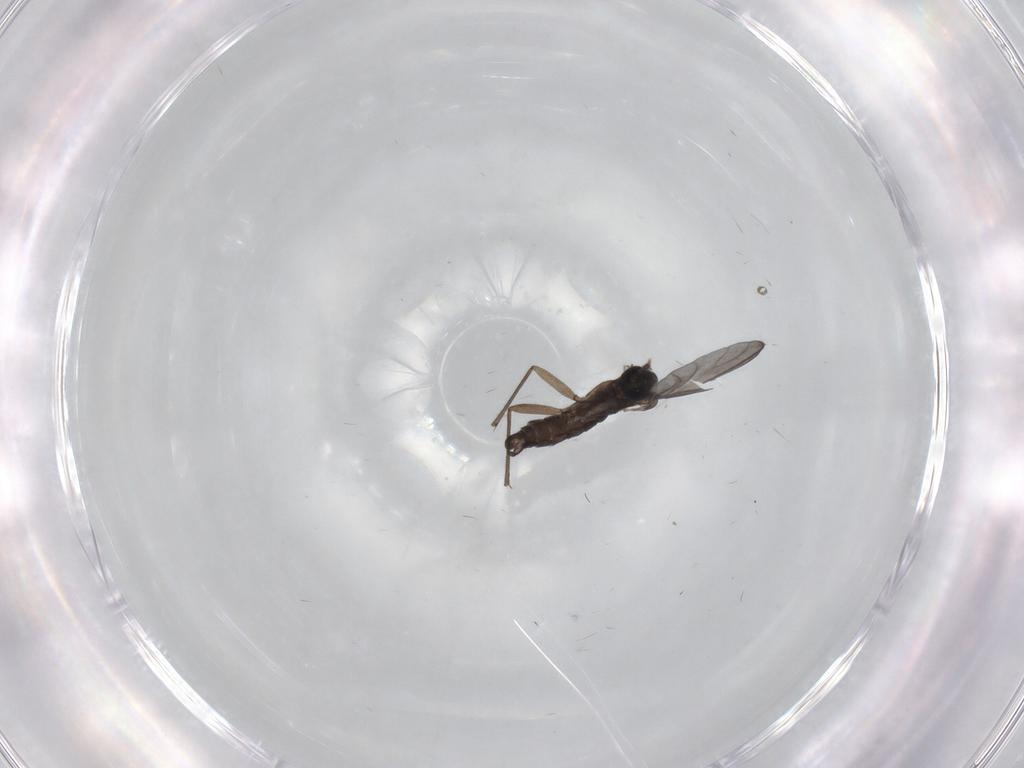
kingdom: Animalia
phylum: Arthropoda
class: Insecta
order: Diptera
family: Sciaridae
